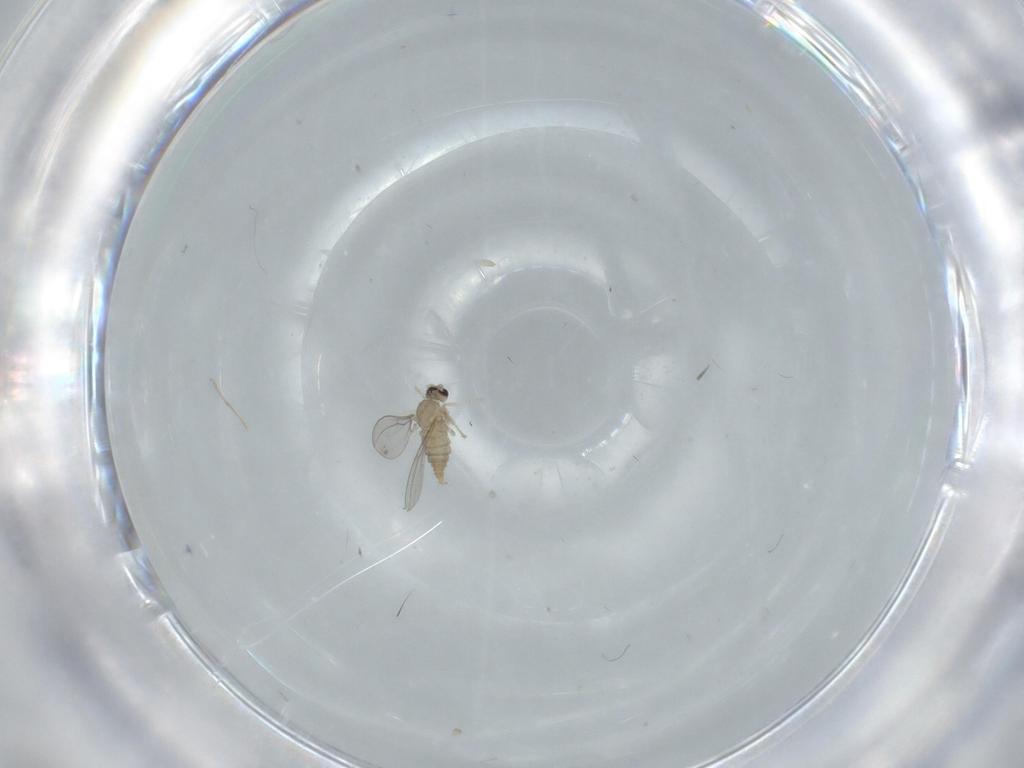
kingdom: Animalia
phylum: Arthropoda
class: Insecta
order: Diptera
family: Cecidomyiidae
